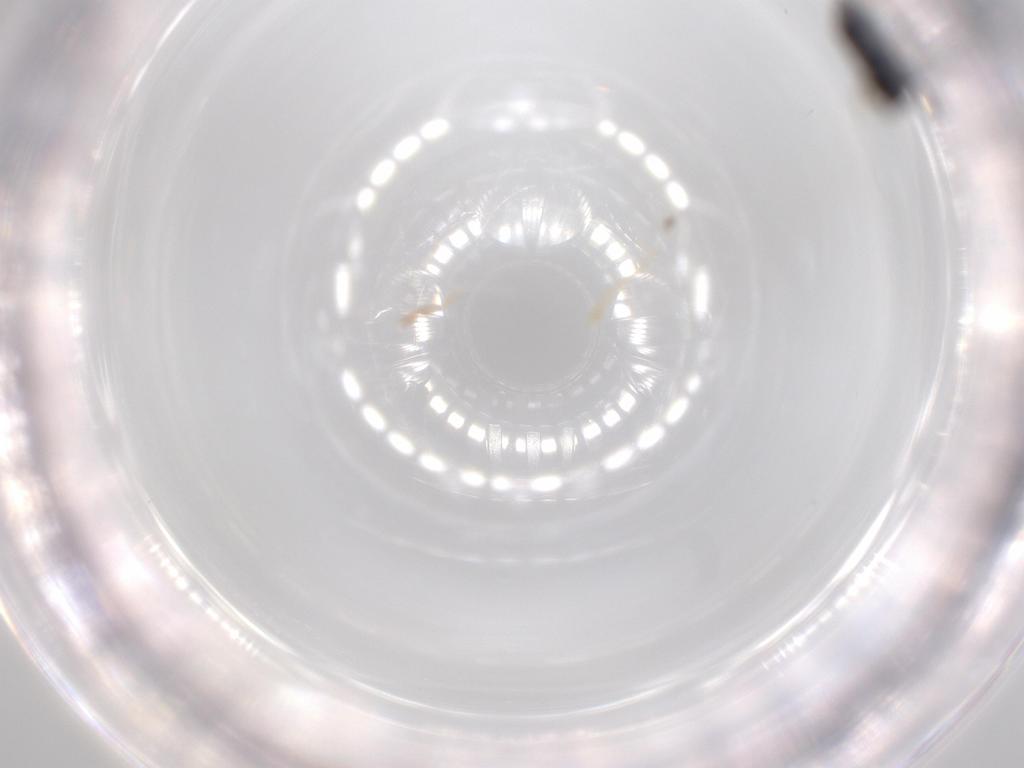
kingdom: Animalia
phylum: Arthropoda
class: Insecta
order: Hymenoptera
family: Formicidae
